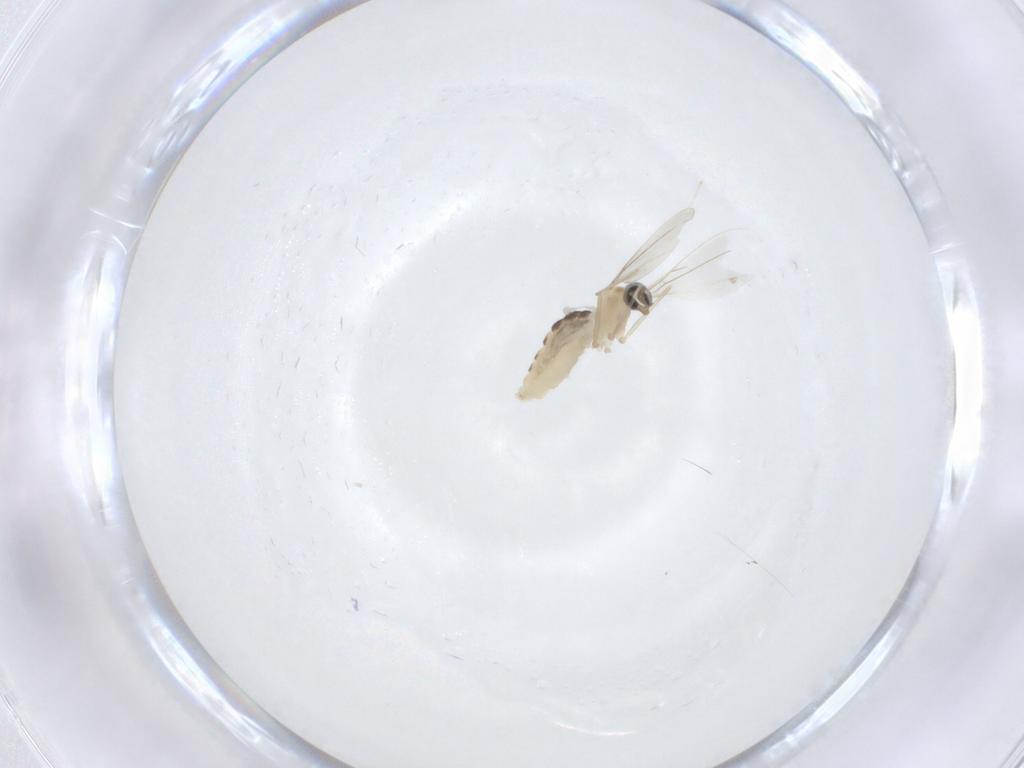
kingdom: Animalia
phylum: Arthropoda
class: Insecta
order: Diptera
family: Cecidomyiidae
